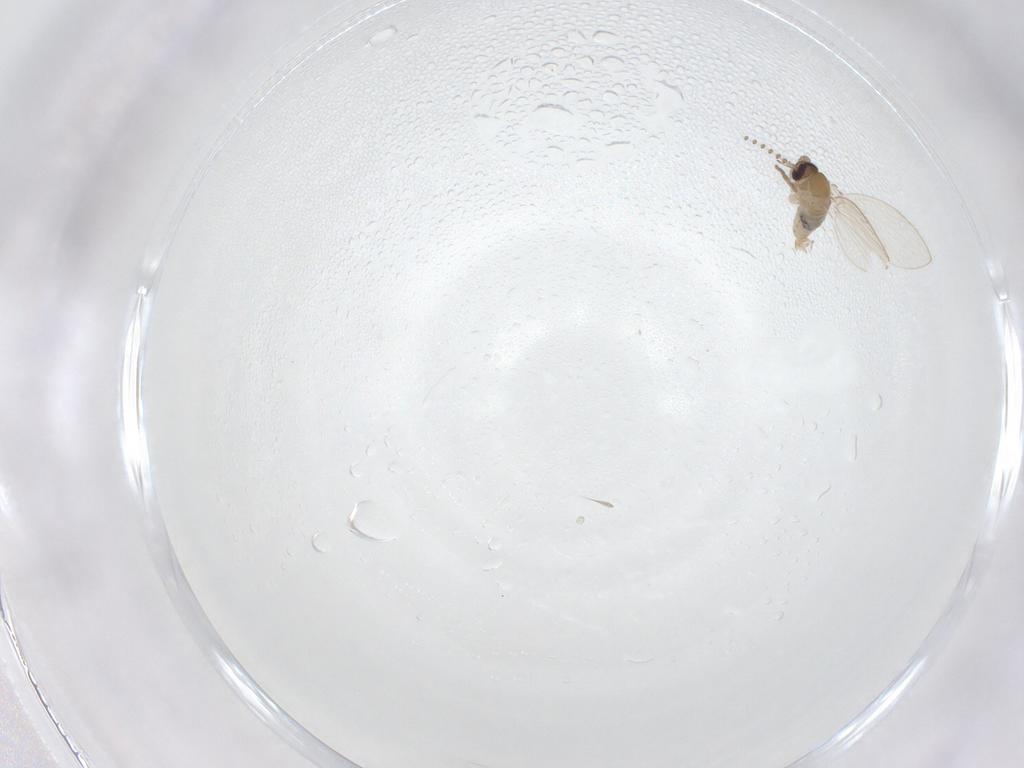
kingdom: Animalia
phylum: Arthropoda
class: Insecta
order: Diptera
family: Psychodidae
